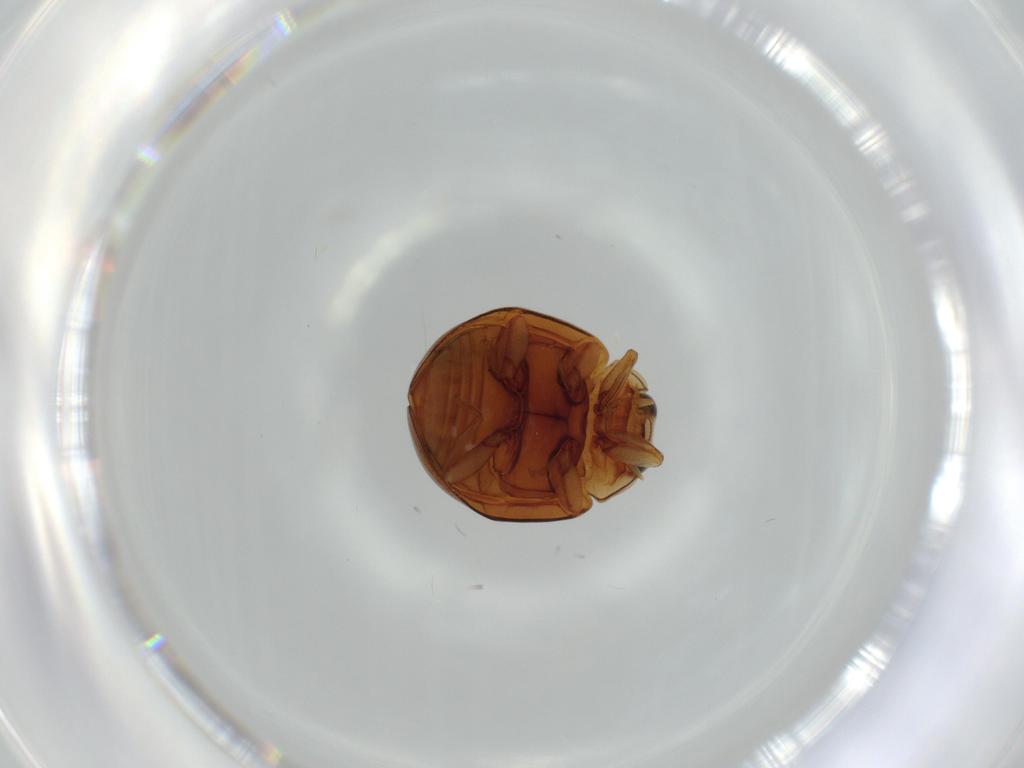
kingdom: Animalia
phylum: Arthropoda
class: Insecta
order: Coleoptera
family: Coccinellidae
